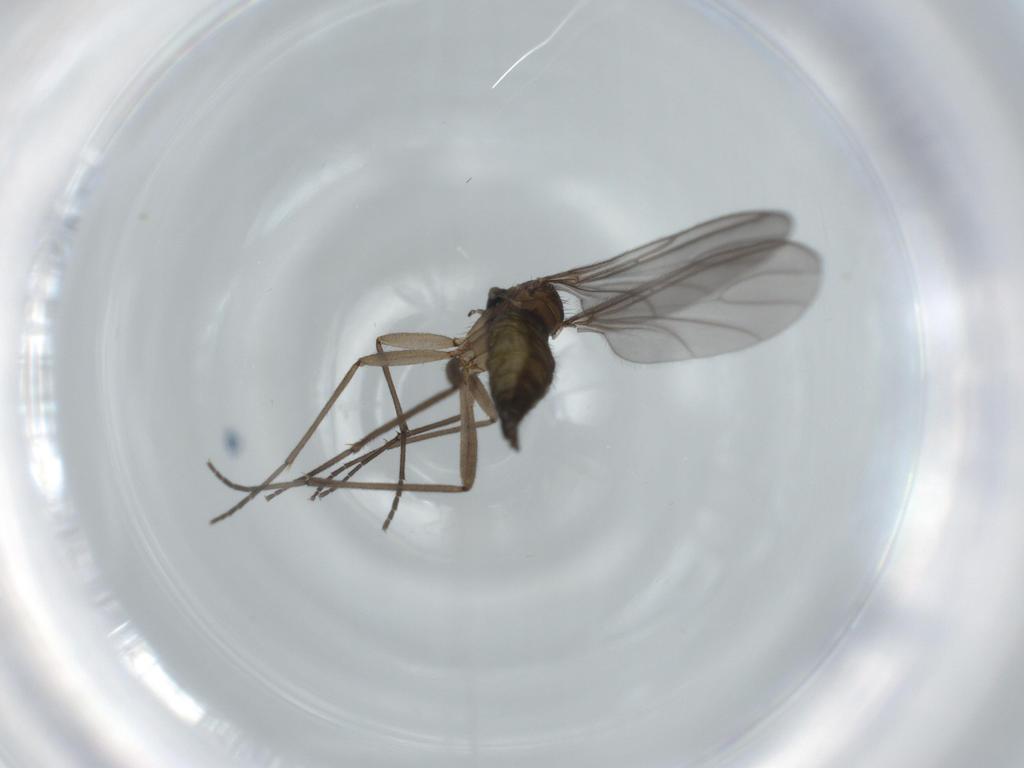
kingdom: Animalia
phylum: Arthropoda
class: Insecta
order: Diptera
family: Sciaridae
